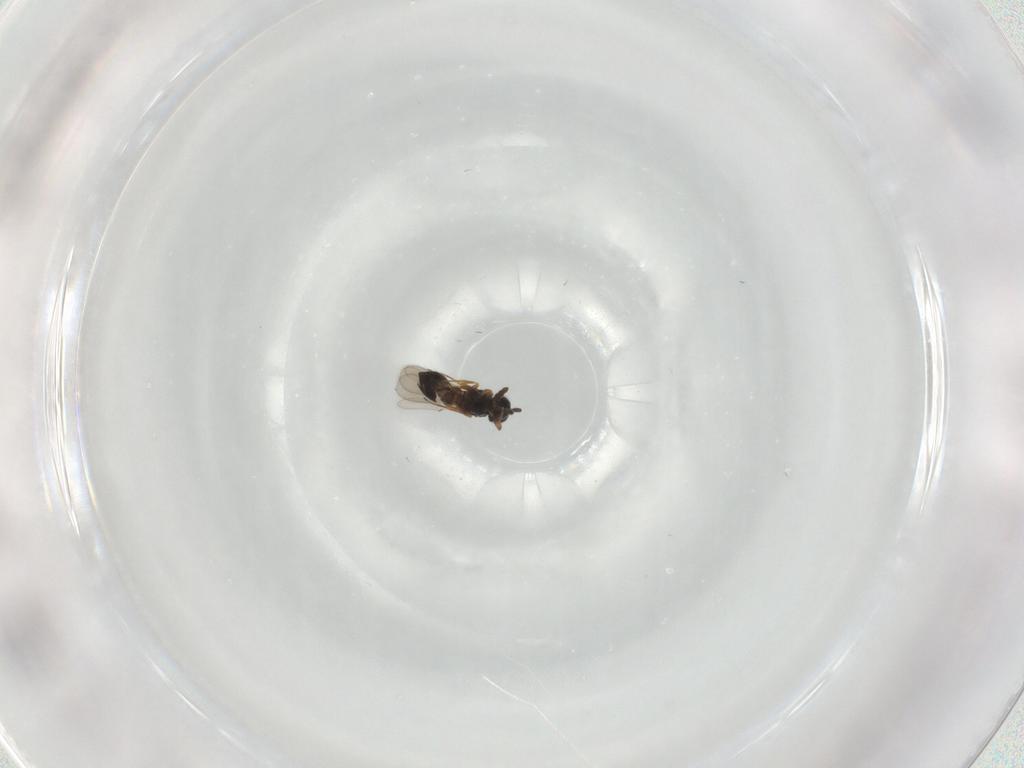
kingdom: Animalia
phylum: Arthropoda
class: Insecta
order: Hymenoptera
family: Scelionidae
